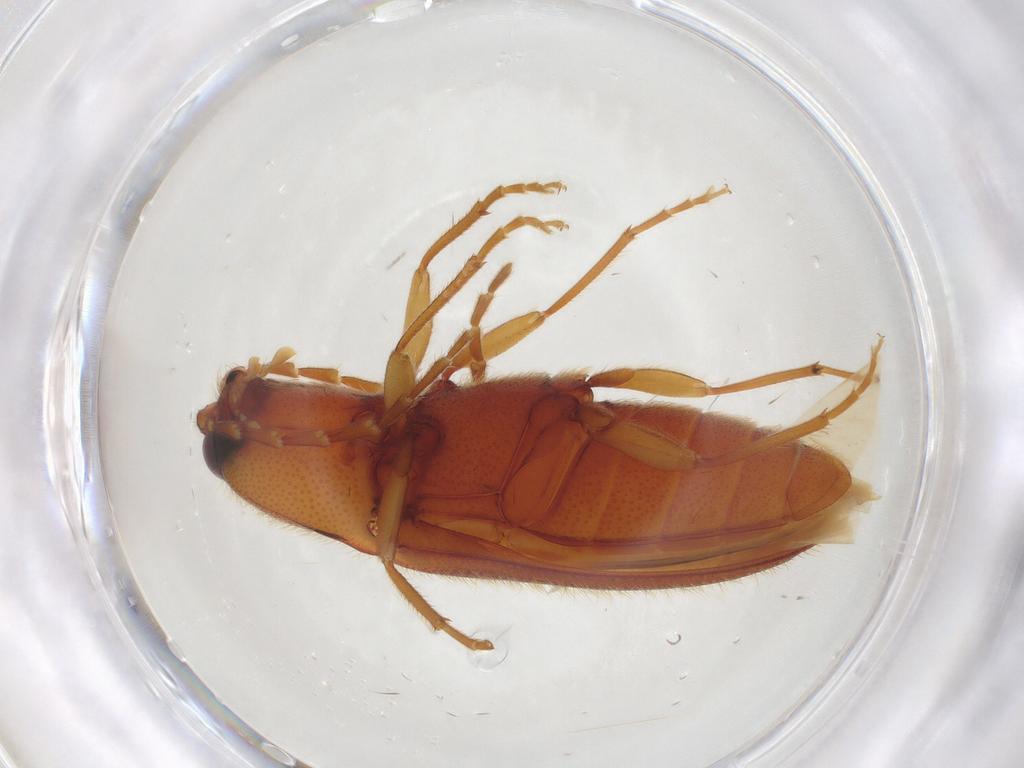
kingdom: Animalia
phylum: Arthropoda
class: Insecta
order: Coleoptera
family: Elateridae
